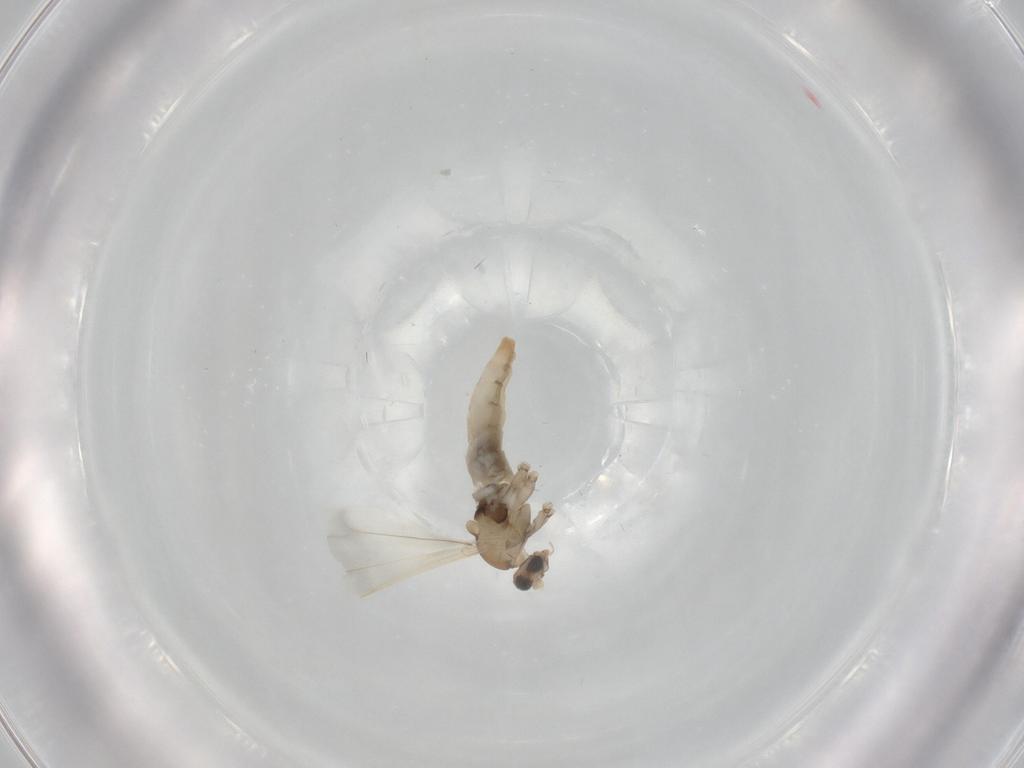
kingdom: Animalia
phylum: Arthropoda
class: Insecta
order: Diptera
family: Cecidomyiidae
